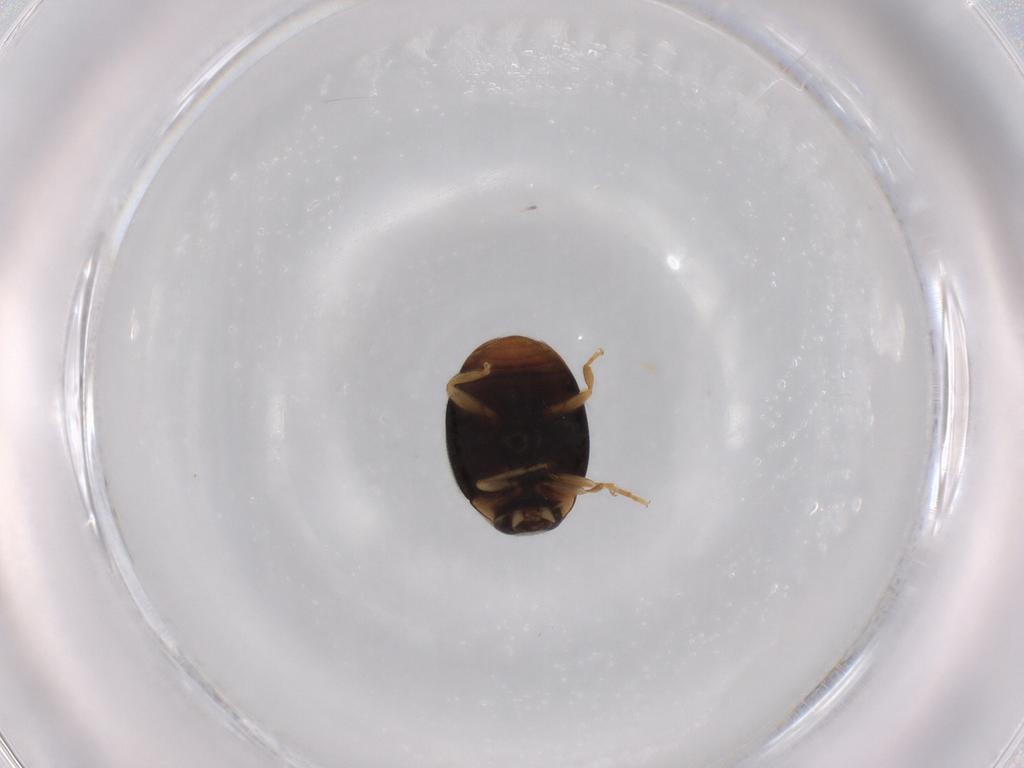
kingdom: Animalia
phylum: Arthropoda
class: Insecta
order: Coleoptera
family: Coccinellidae
